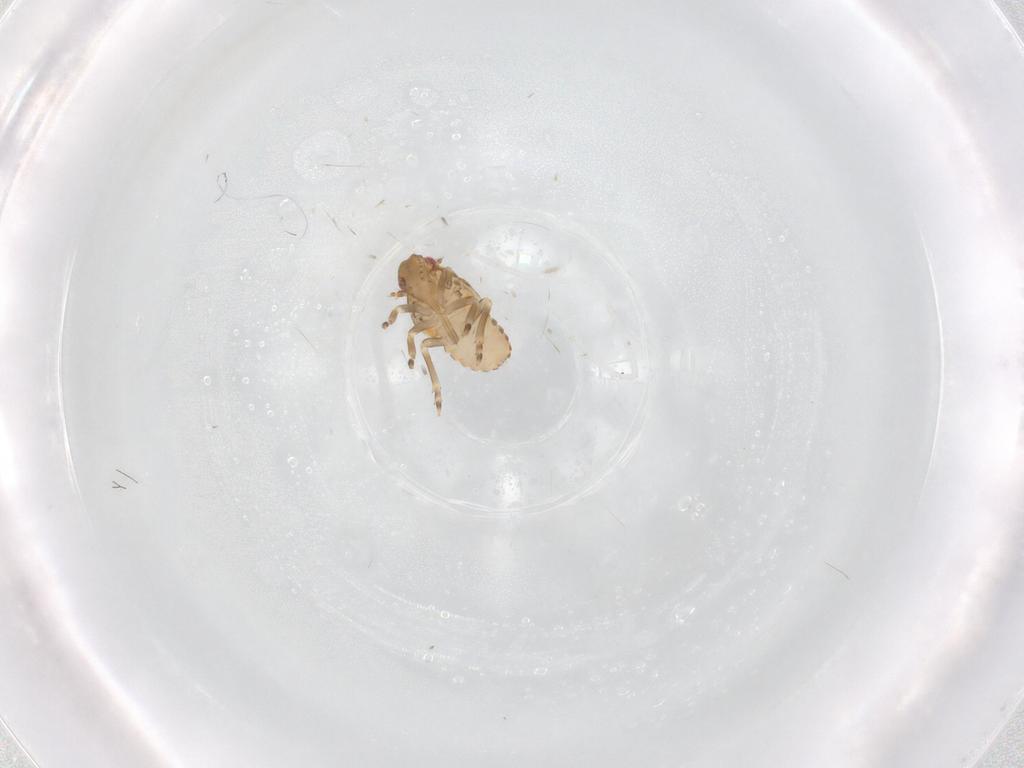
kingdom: Animalia
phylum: Arthropoda
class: Insecta
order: Hemiptera
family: Flatidae
